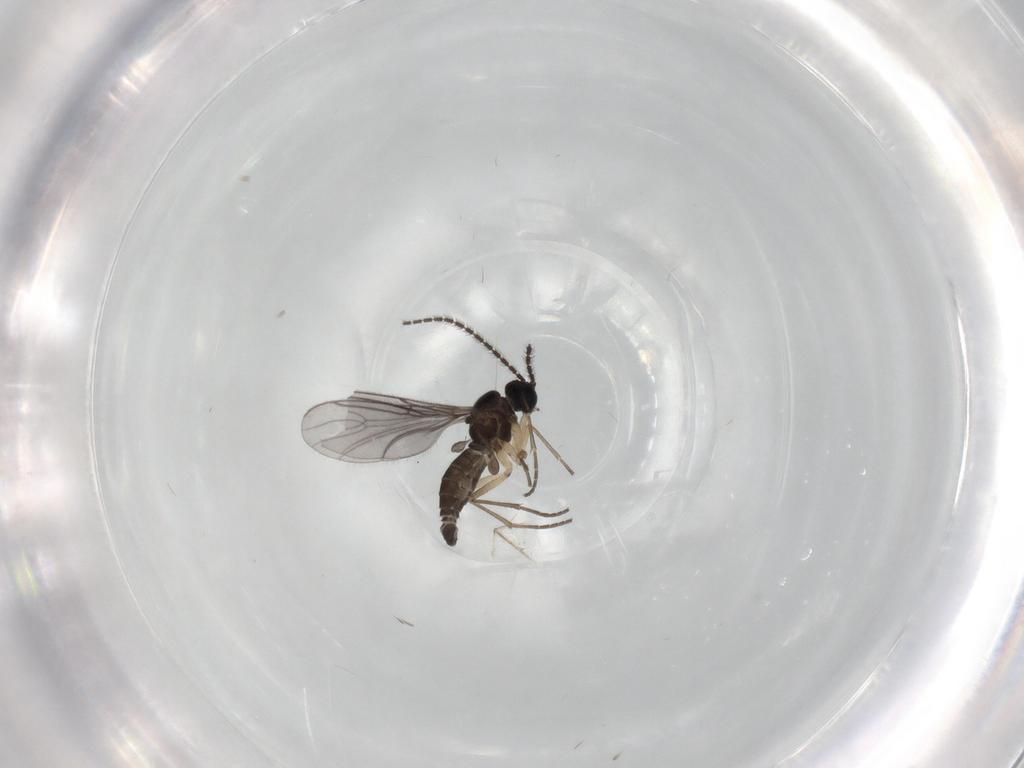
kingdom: Animalia
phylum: Arthropoda
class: Insecta
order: Diptera
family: Sciaridae
